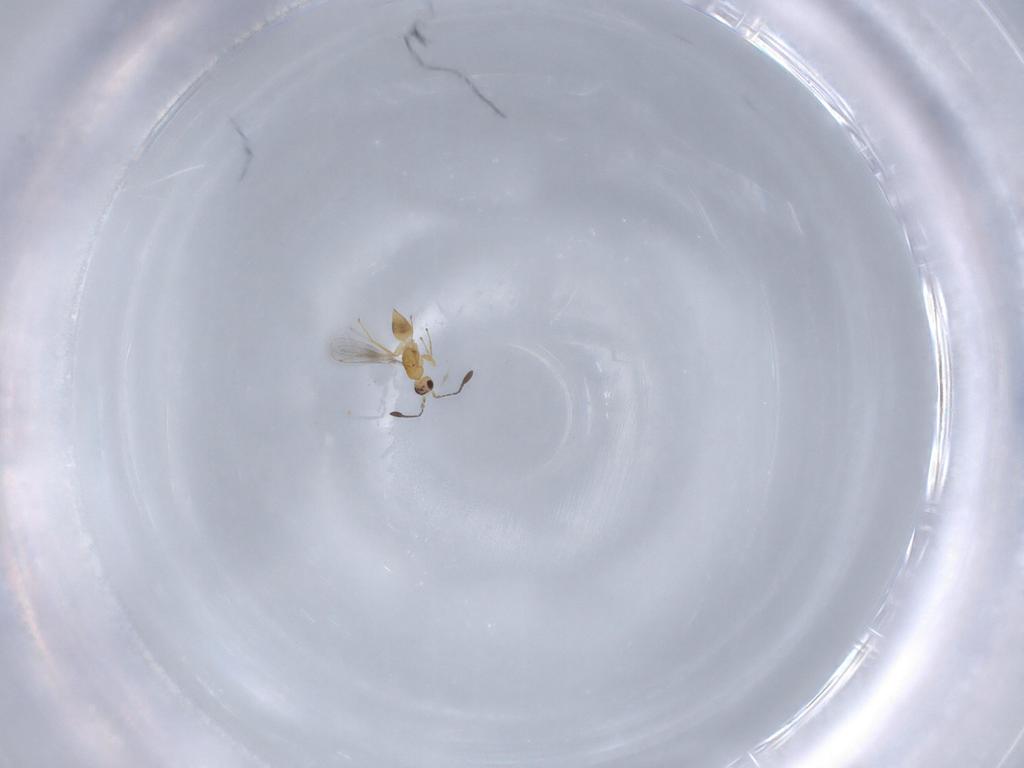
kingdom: Animalia
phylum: Arthropoda
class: Insecta
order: Hymenoptera
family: Mymaridae
